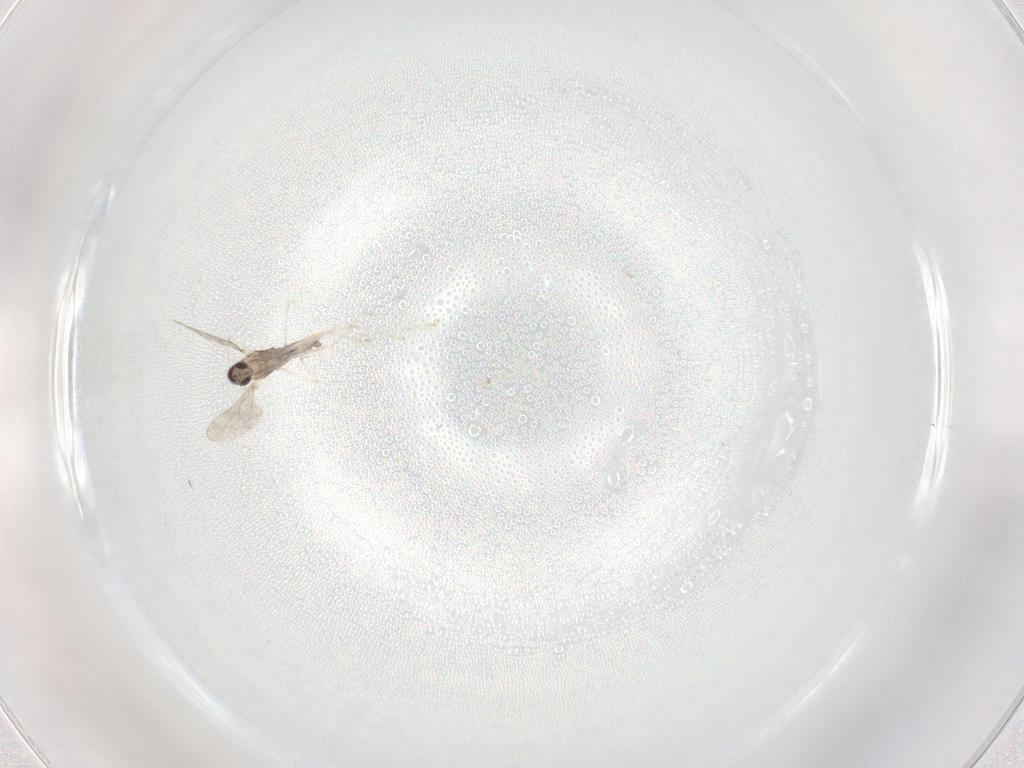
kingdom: Animalia
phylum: Arthropoda
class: Insecta
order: Diptera
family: Cecidomyiidae
